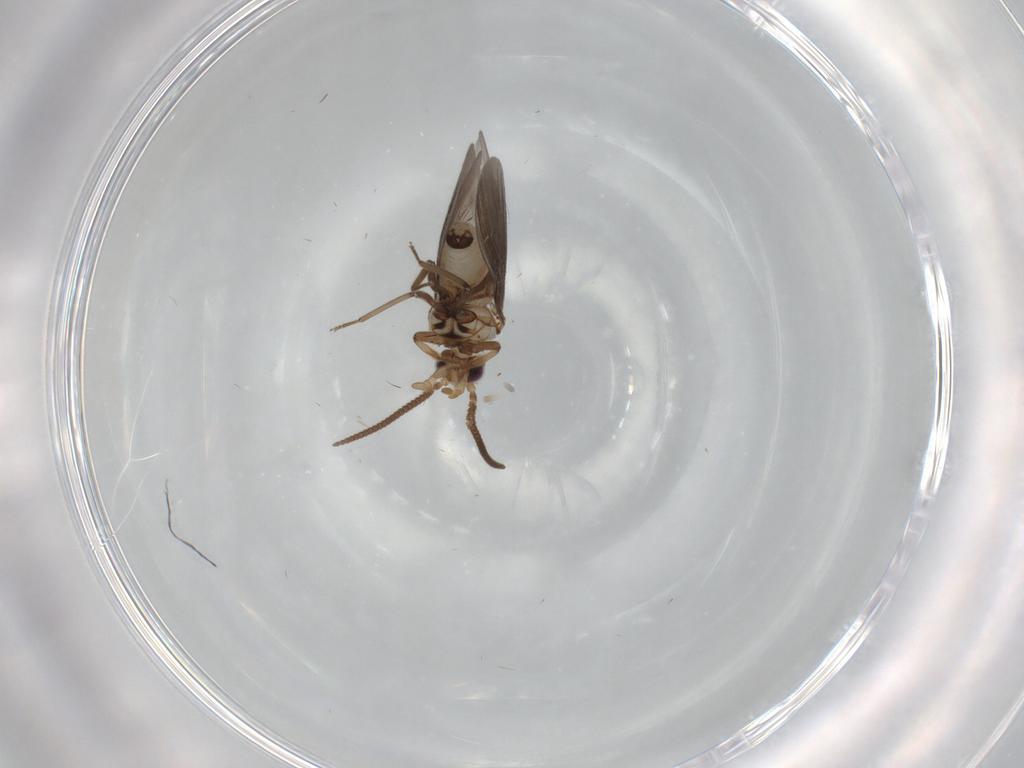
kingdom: Animalia
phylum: Arthropoda
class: Insecta
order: Neuroptera
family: Coniopterygidae
